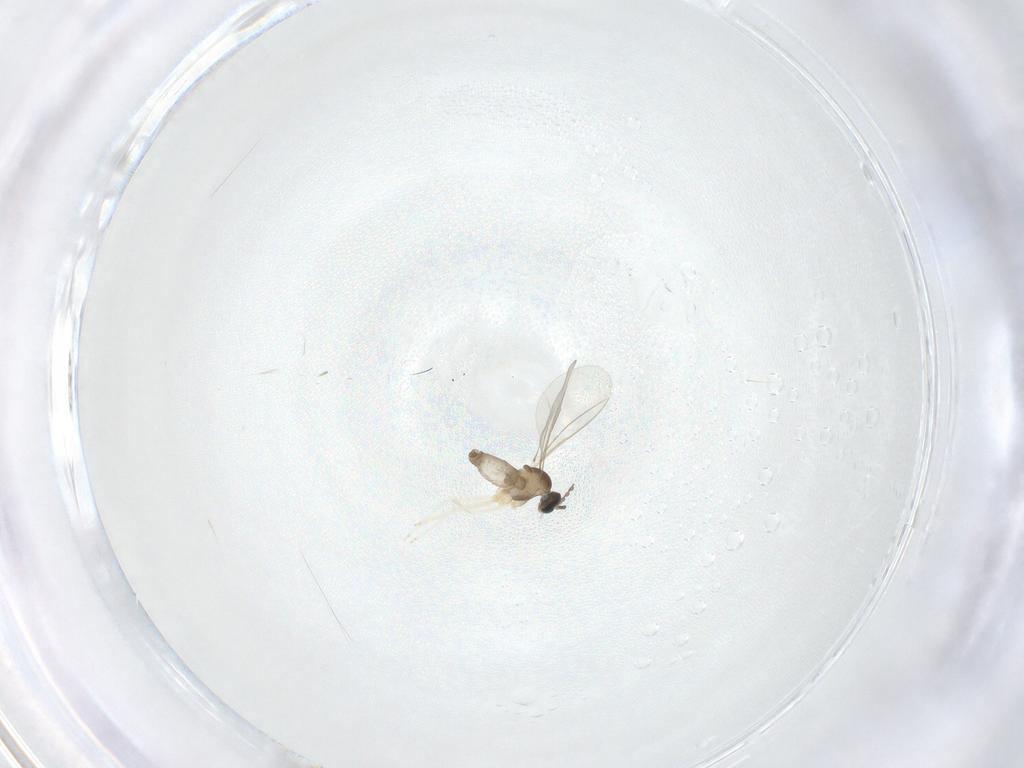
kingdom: Animalia
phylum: Arthropoda
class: Insecta
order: Diptera
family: Cecidomyiidae
